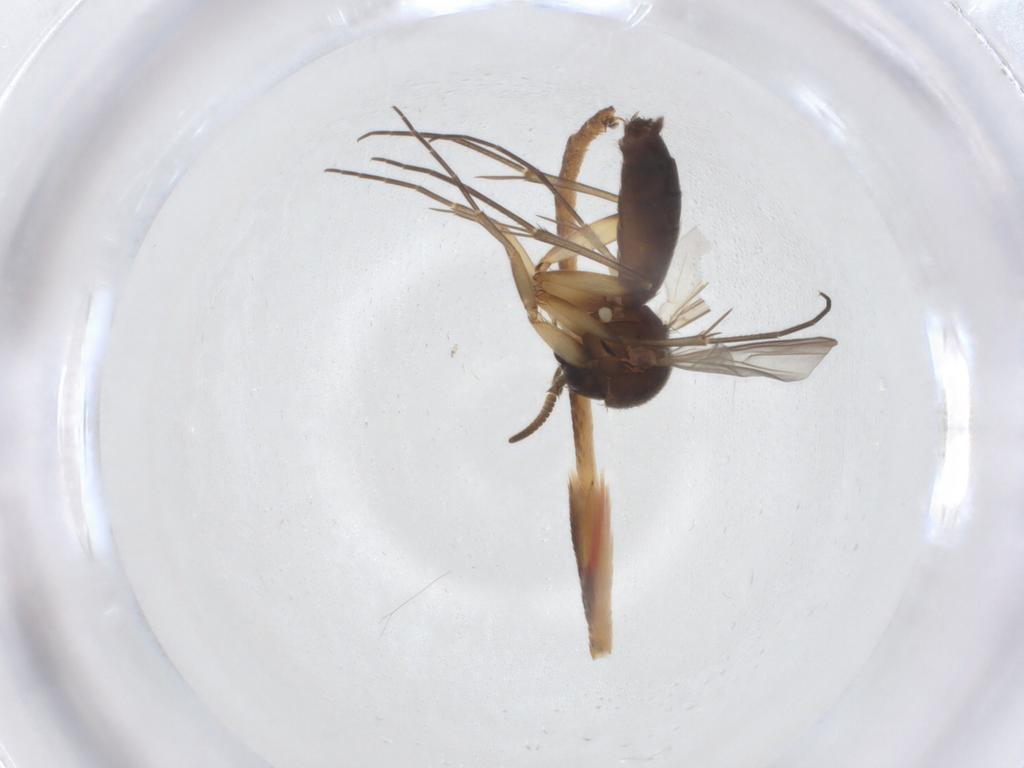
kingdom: Animalia
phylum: Arthropoda
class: Insecta
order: Diptera
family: Mycetophilidae
